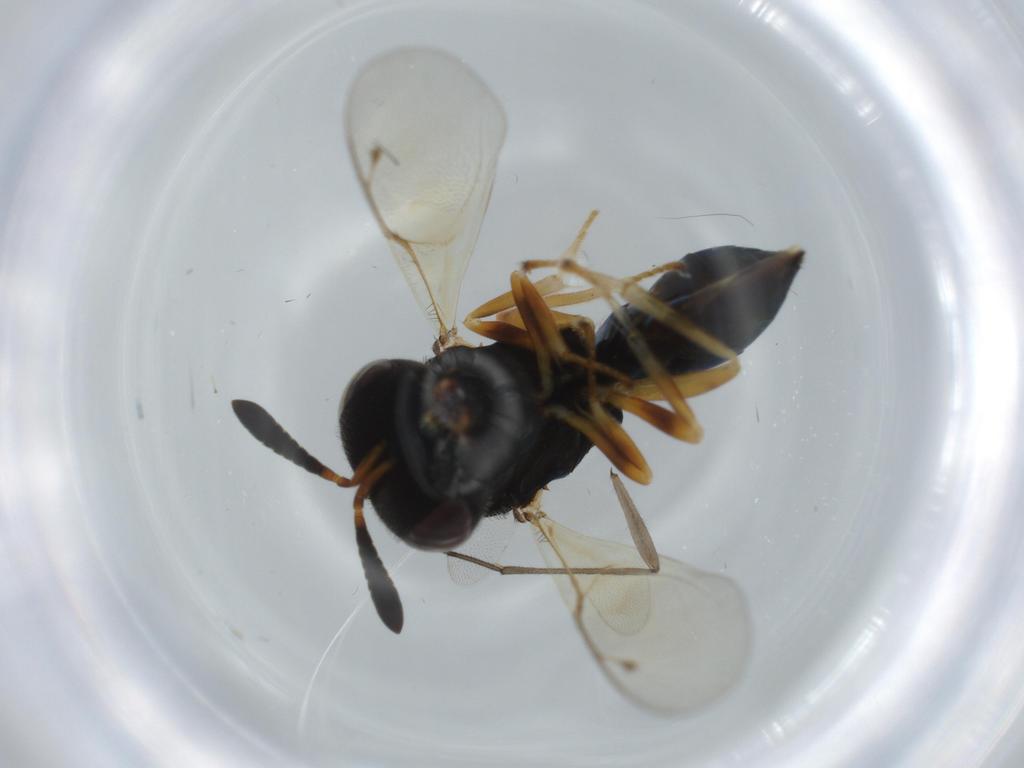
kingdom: Animalia
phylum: Arthropoda
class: Insecta
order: Hymenoptera
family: Agaonidae
